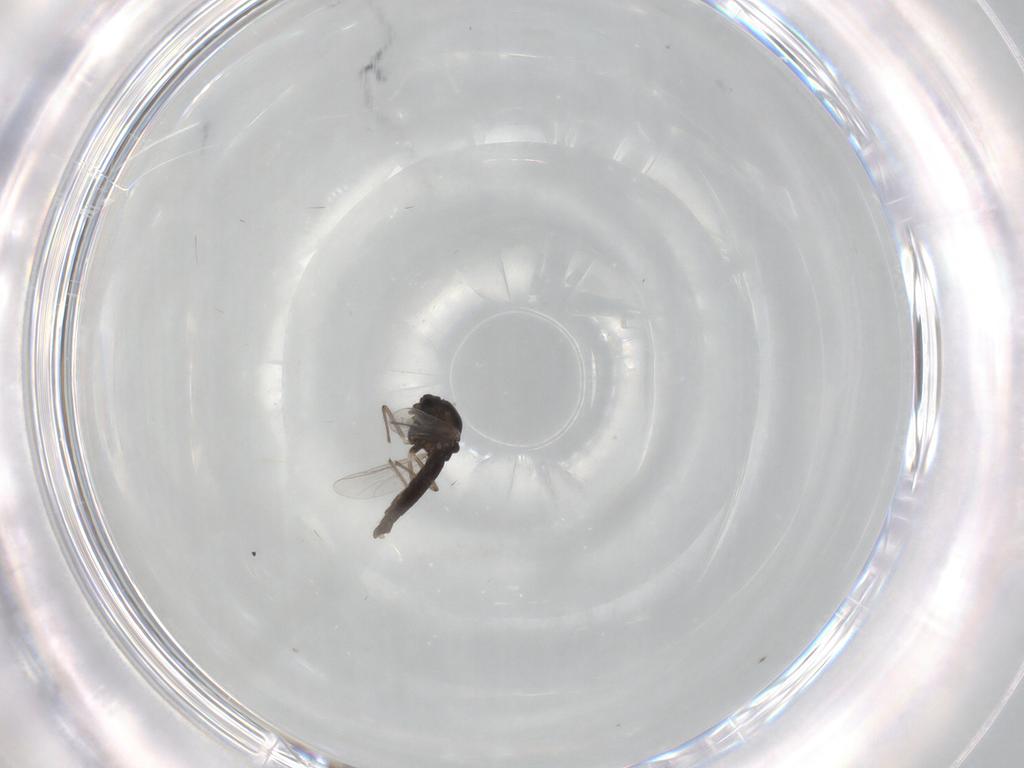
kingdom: Animalia
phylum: Arthropoda
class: Insecta
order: Diptera
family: Chironomidae
